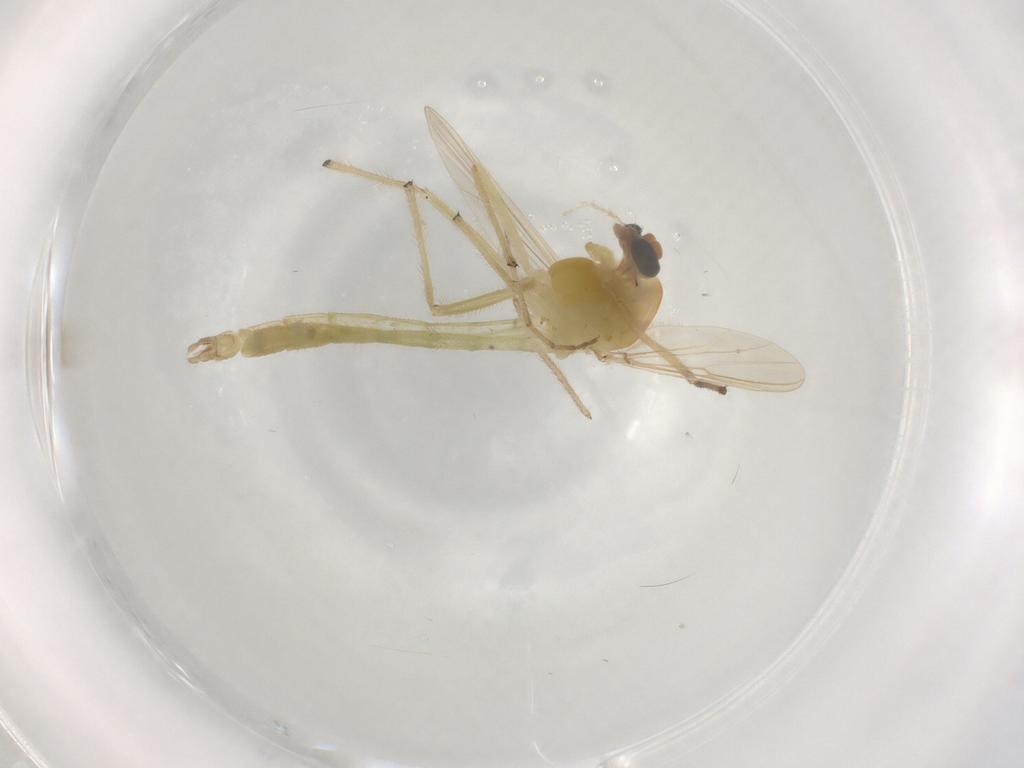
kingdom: Animalia
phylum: Arthropoda
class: Insecta
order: Diptera
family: Chironomidae
